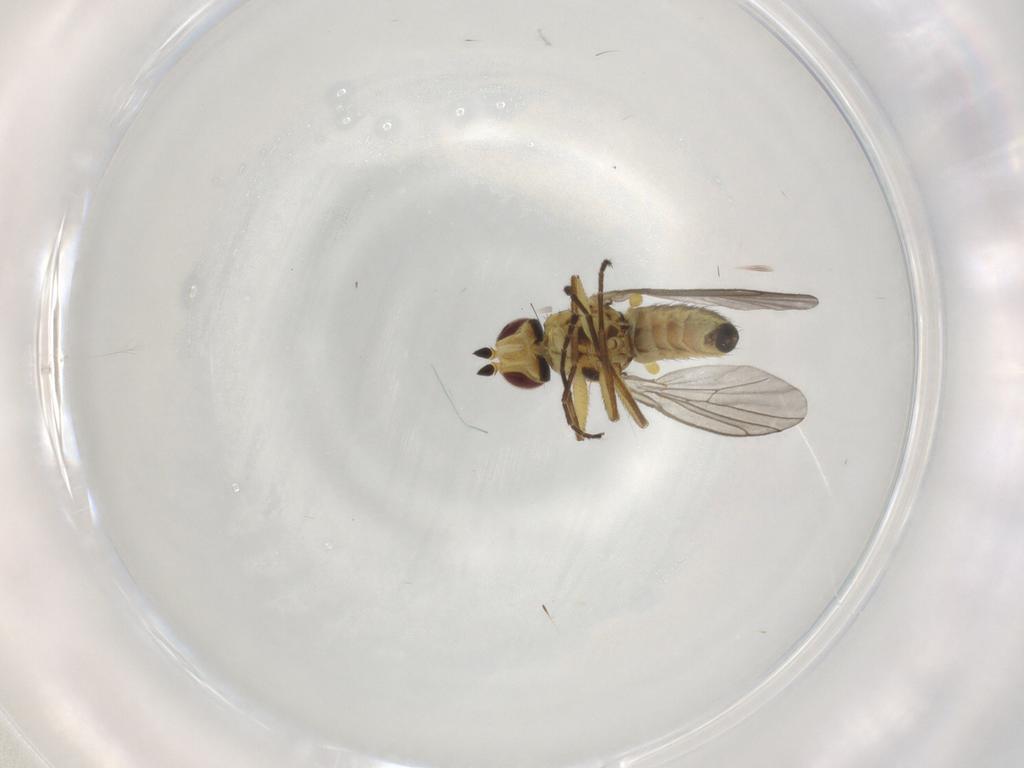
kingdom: Animalia
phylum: Arthropoda
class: Insecta
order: Diptera
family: Agromyzidae
